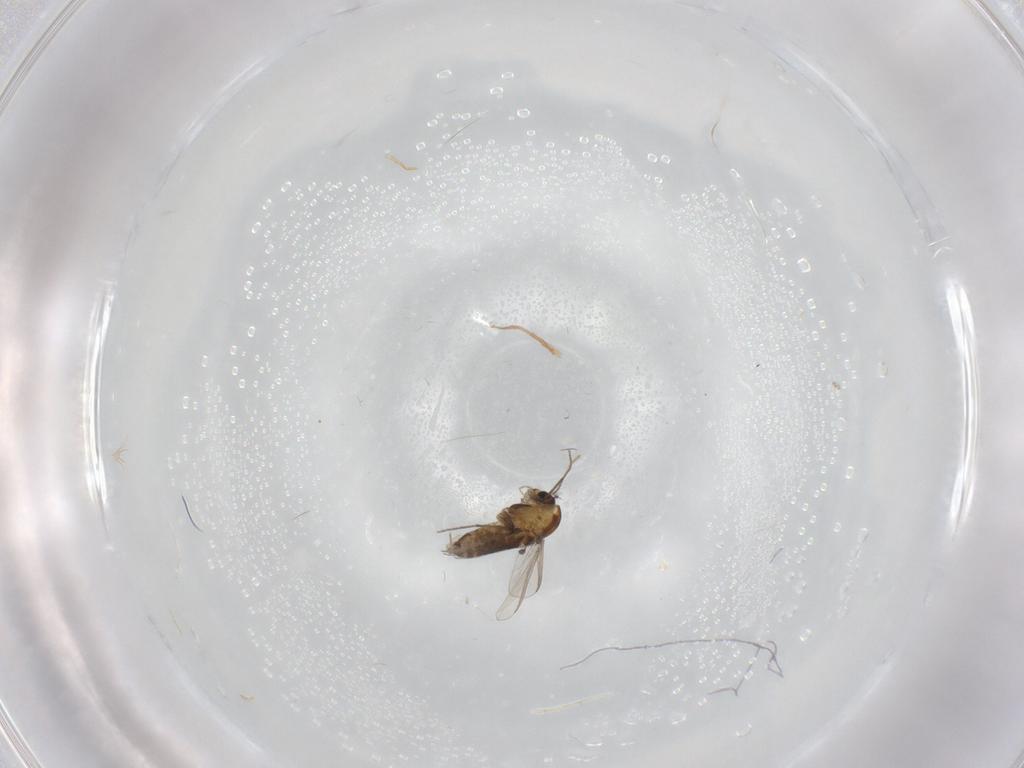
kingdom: Animalia
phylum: Arthropoda
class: Insecta
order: Diptera
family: Chironomidae
